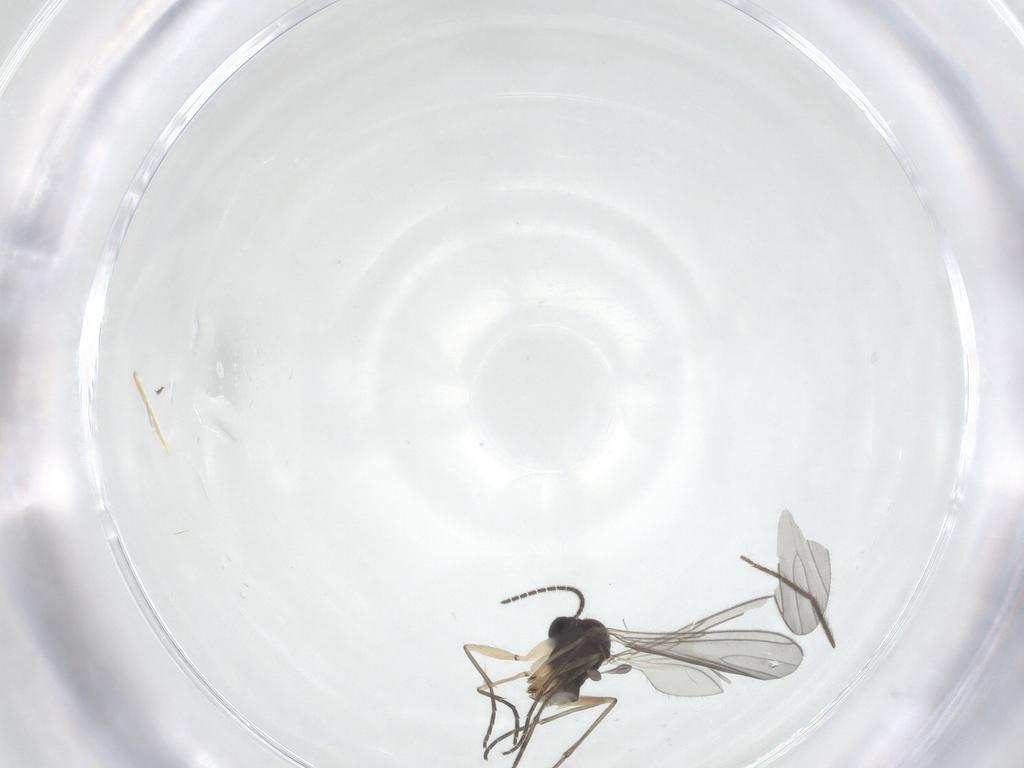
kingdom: Animalia
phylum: Arthropoda
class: Insecta
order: Diptera
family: Sciaridae
